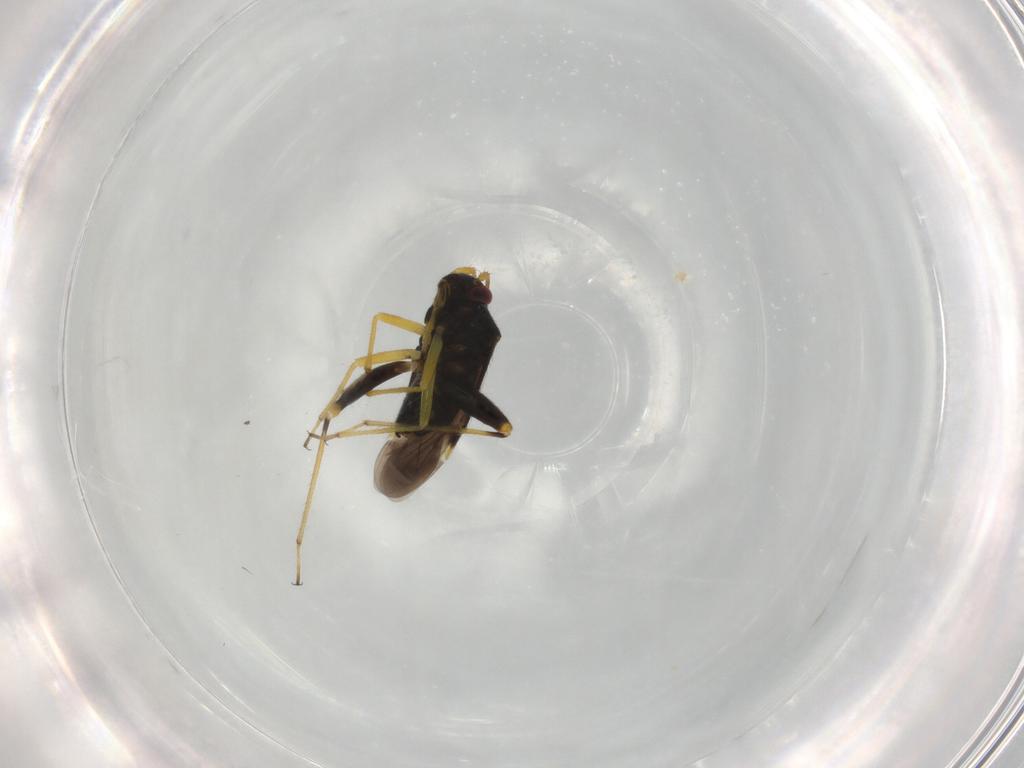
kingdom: Animalia
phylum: Arthropoda
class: Insecta
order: Hemiptera
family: Miridae
